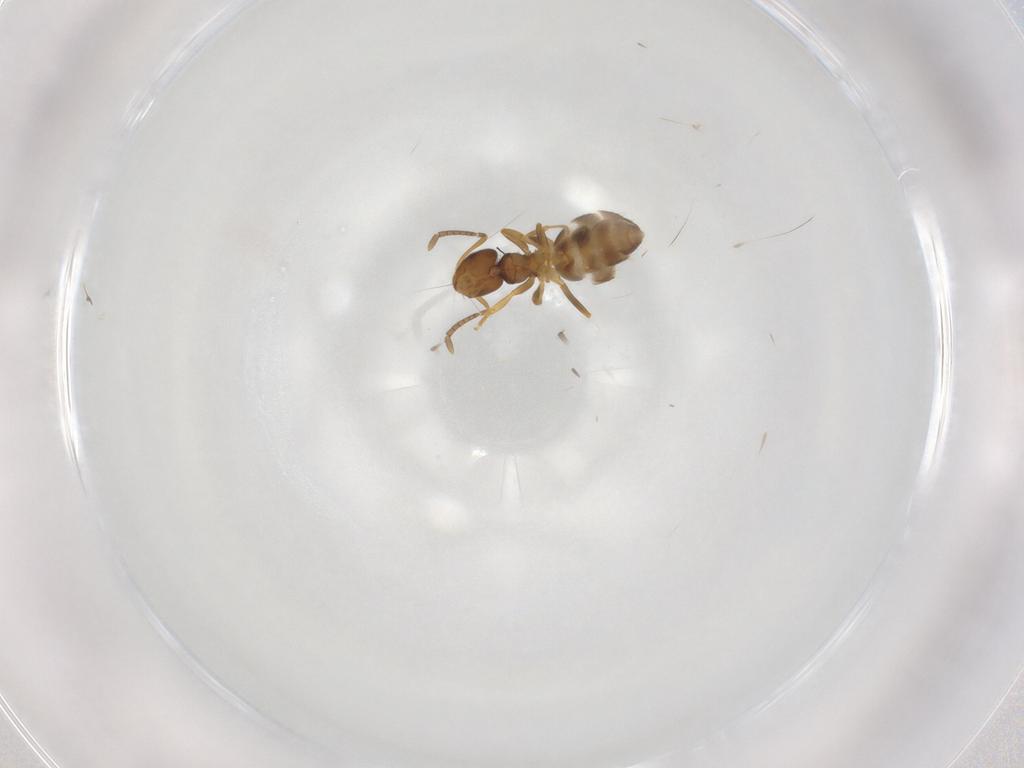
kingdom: Animalia
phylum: Arthropoda
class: Insecta
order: Hymenoptera
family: Formicidae
